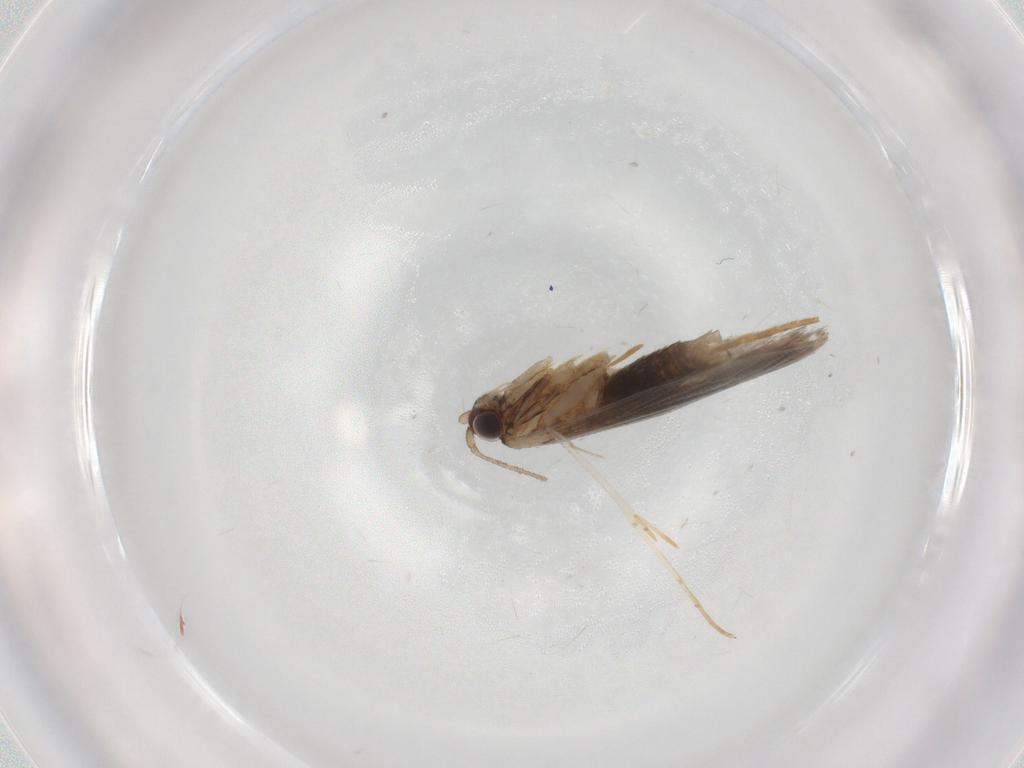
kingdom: Animalia
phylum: Arthropoda
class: Insecta
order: Lepidoptera
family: Tineidae
